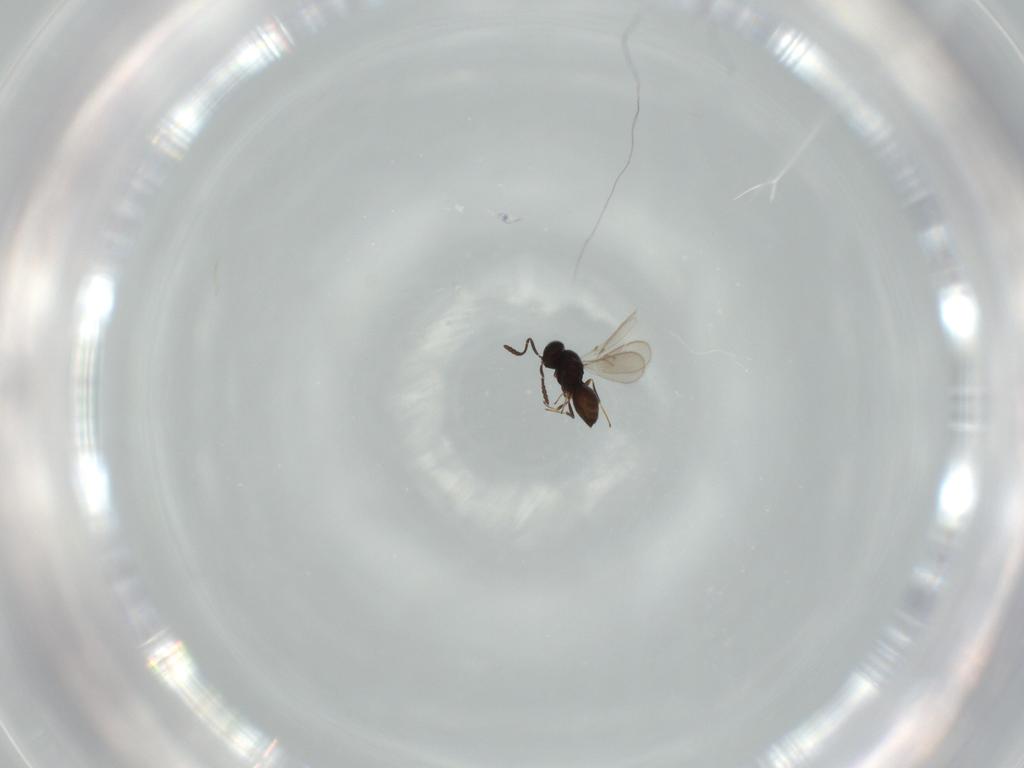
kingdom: Animalia
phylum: Arthropoda
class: Insecta
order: Hymenoptera
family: Scelionidae
